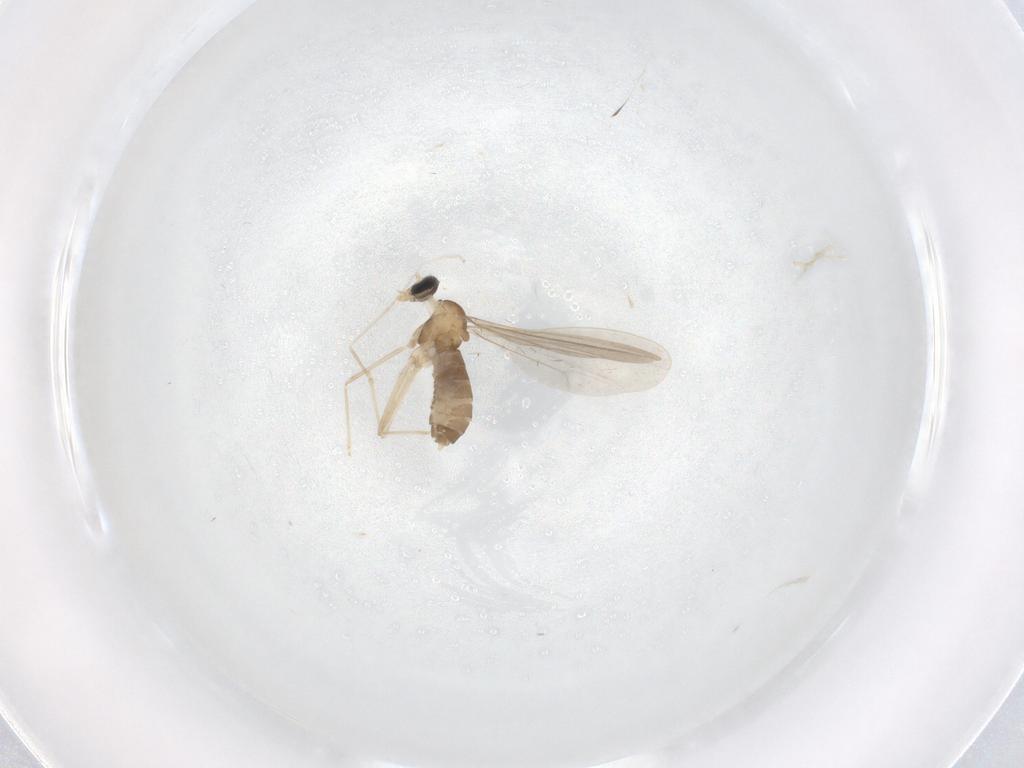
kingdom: Animalia
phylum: Arthropoda
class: Insecta
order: Diptera
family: Cecidomyiidae
